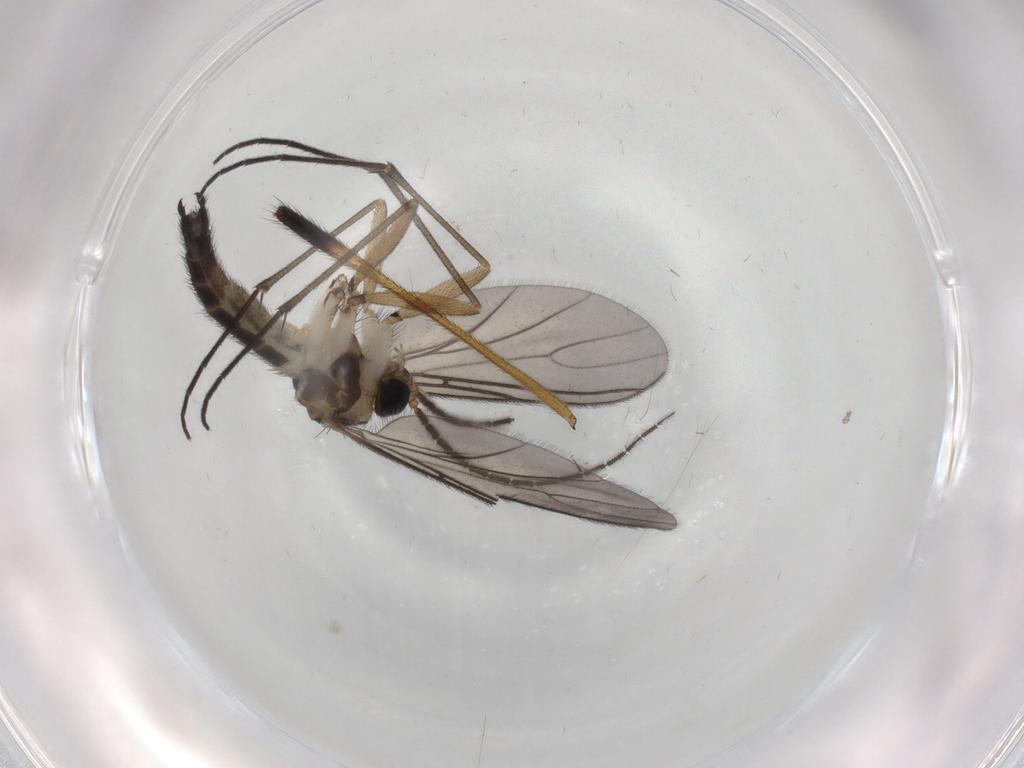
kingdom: Animalia
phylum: Arthropoda
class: Insecta
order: Diptera
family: Limoniidae
